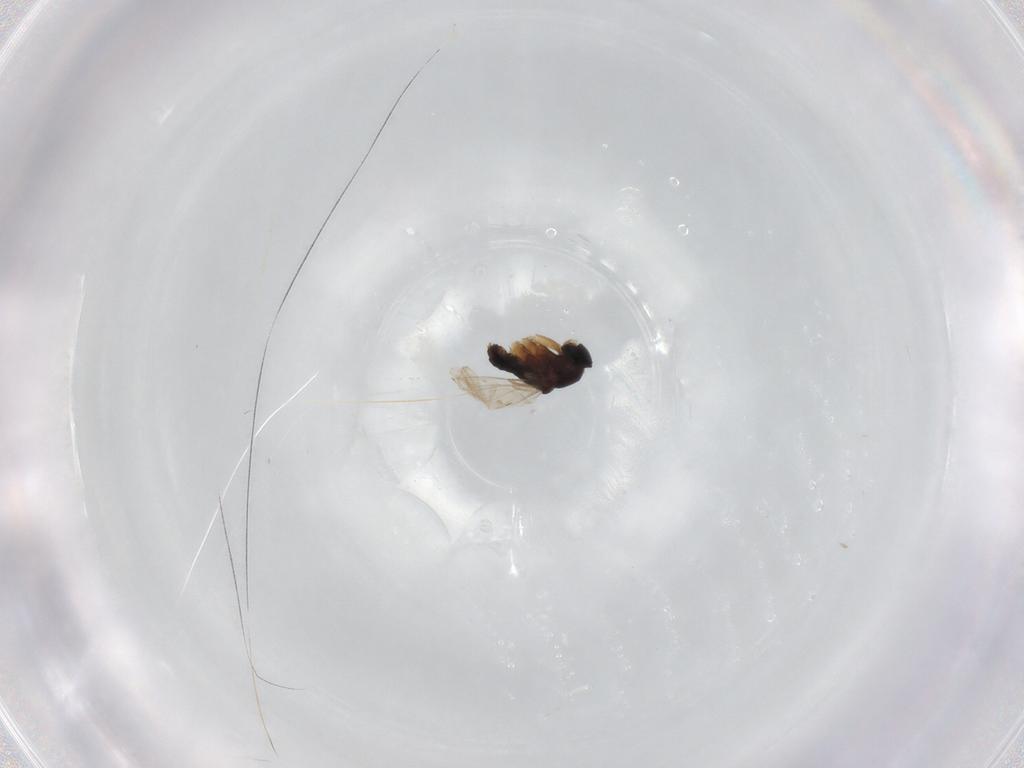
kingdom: Animalia
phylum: Arthropoda
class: Insecta
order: Diptera
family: Phoridae
